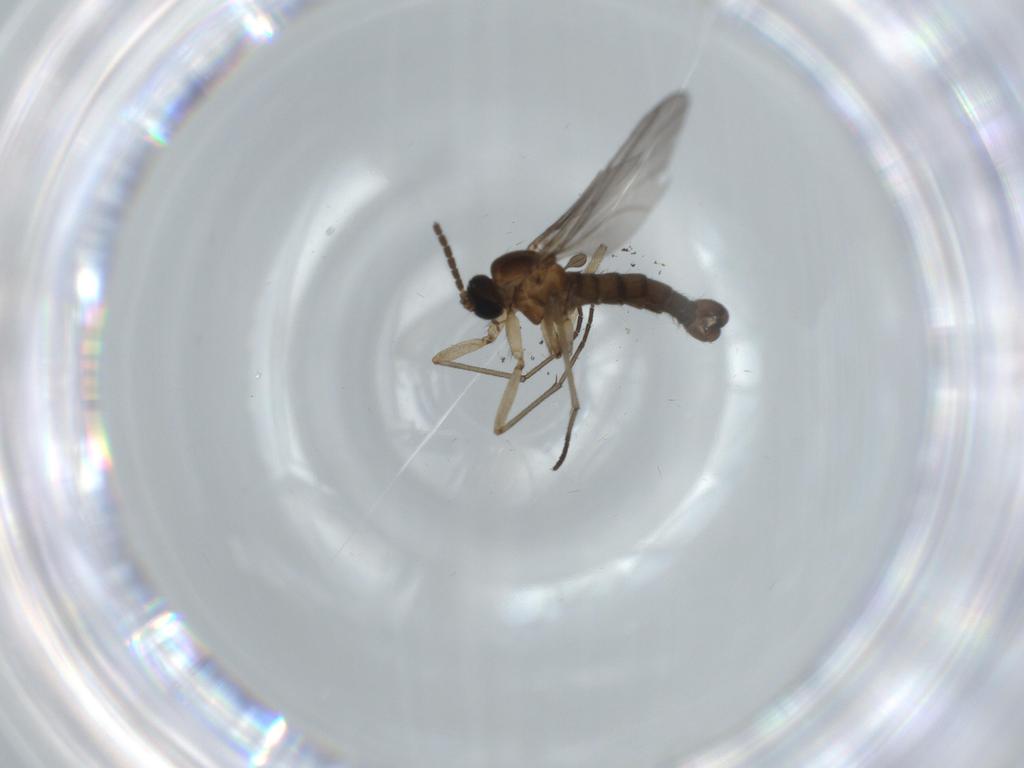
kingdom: Animalia
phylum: Arthropoda
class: Insecta
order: Diptera
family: Sciaridae
